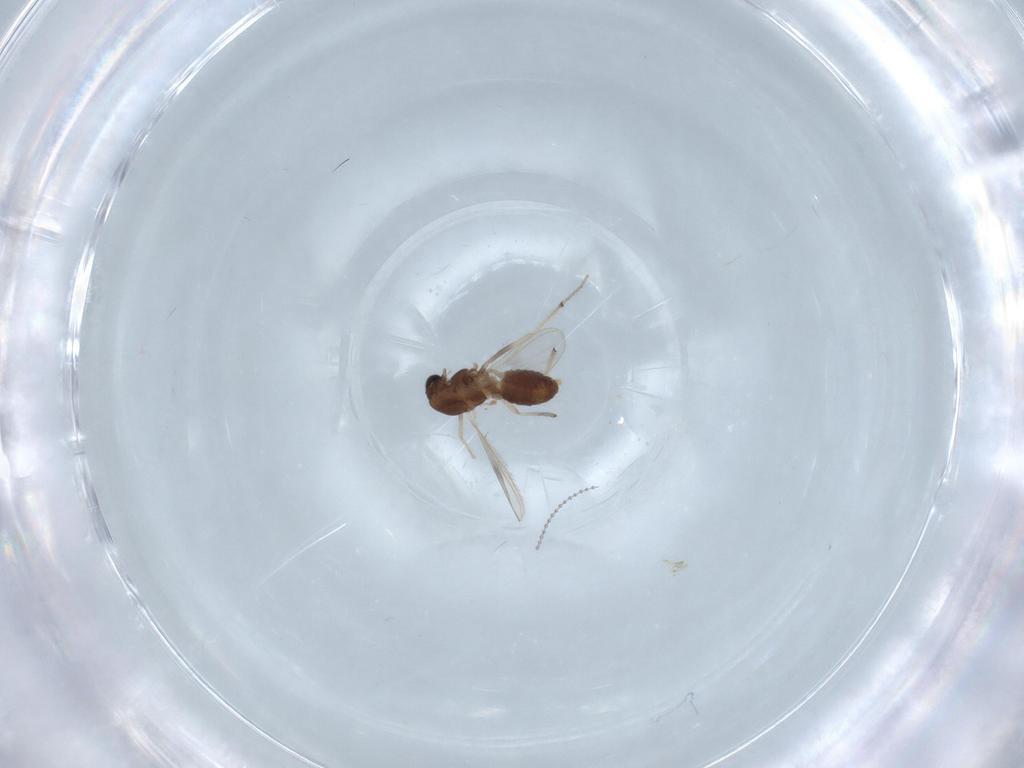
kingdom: Animalia
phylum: Arthropoda
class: Insecta
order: Diptera
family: Chironomidae
